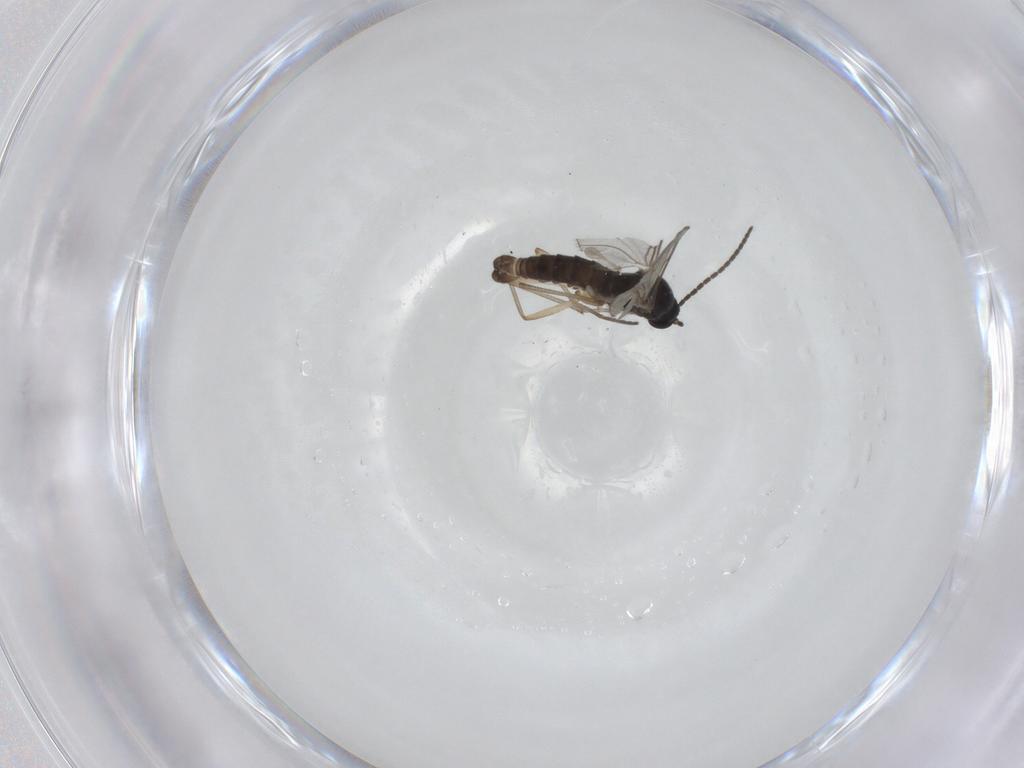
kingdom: Animalia
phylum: Arthropoda
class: Insecta
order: Diptera
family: Sciaridae
